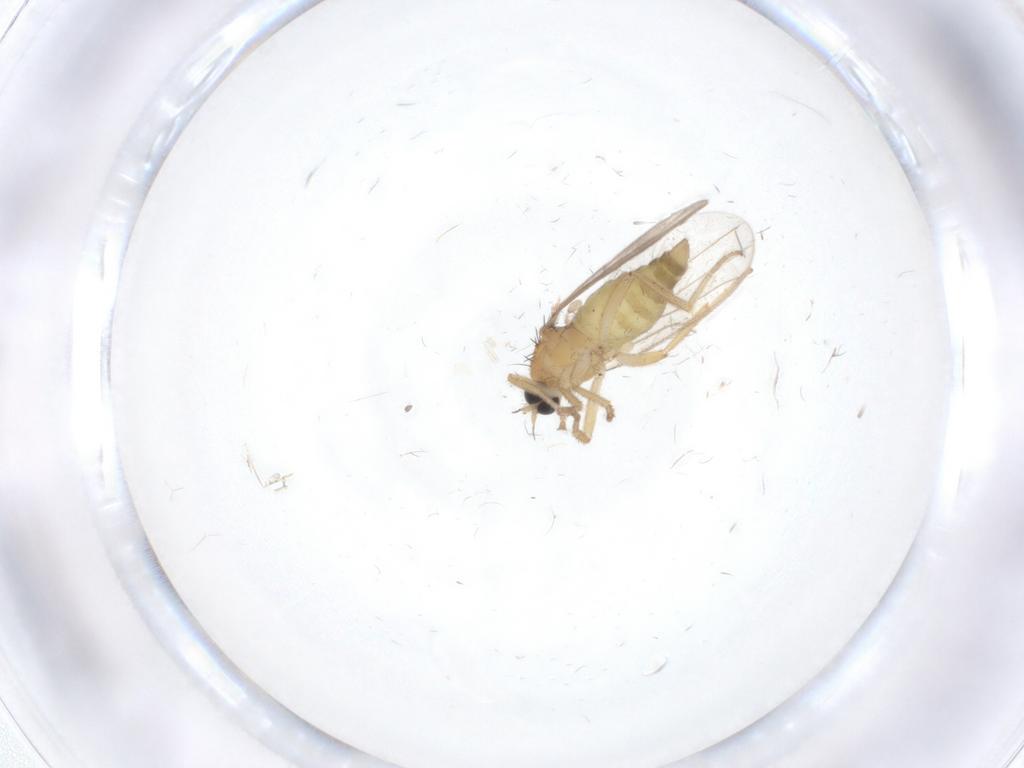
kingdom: Animalia
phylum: Arthropoda
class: Insecta
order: Diptera
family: Hybotidae
